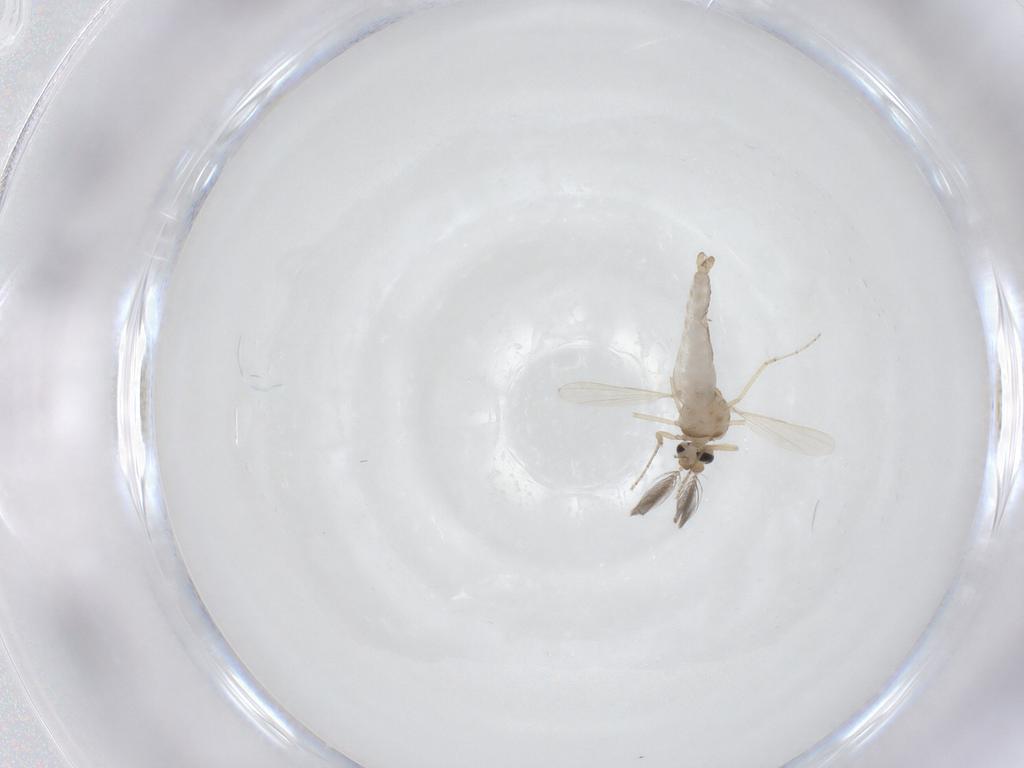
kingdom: Animalia
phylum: Arthropoda
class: Insecta
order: Diptera
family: Ceratopogonidae
